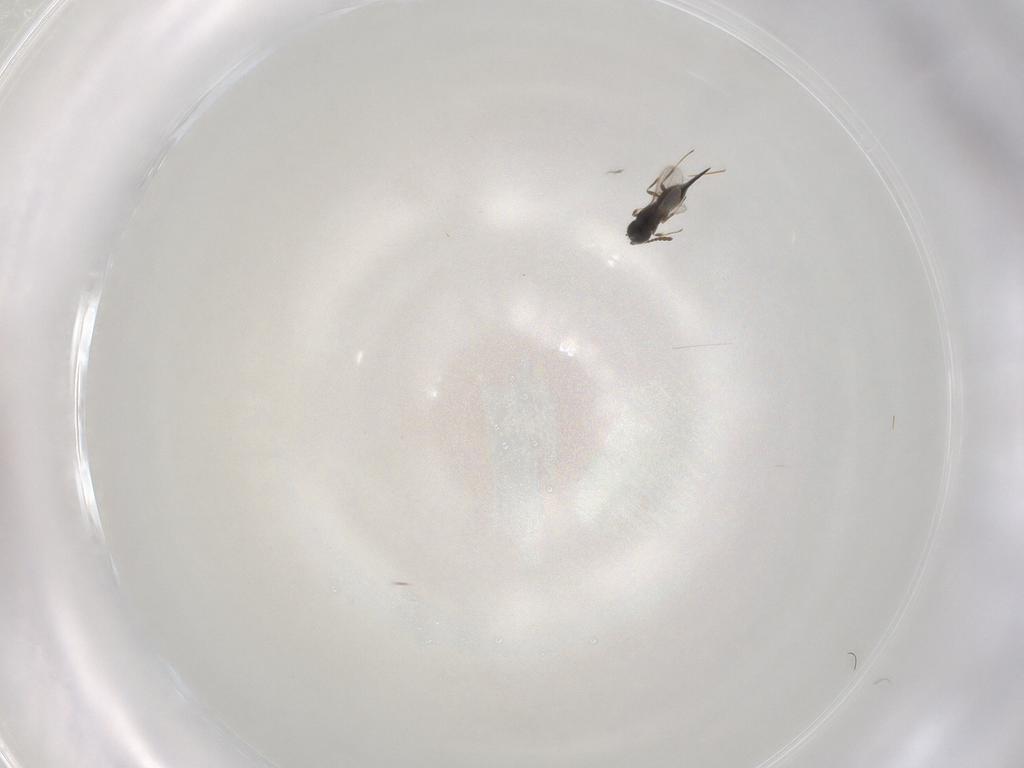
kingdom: Animalia
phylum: Arthropoda
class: Insecta
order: Hymenoptera
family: Scelionidae
